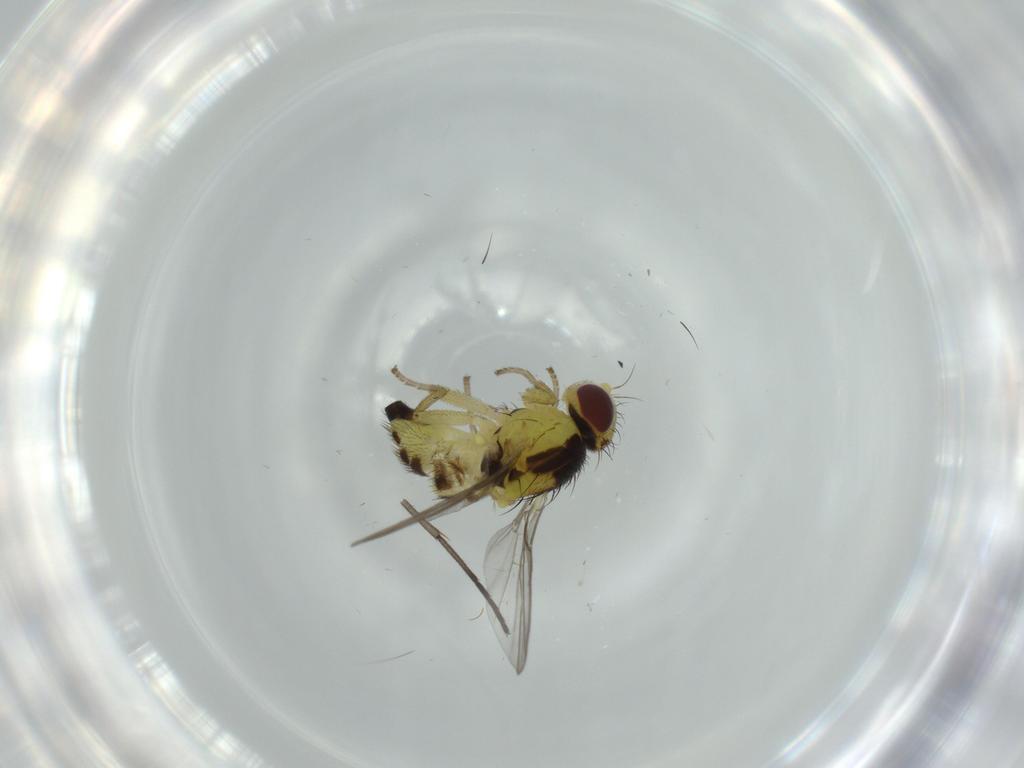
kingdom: Animalia
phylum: Arthropoda
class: Insecta
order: Diptera
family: Agromyzidae
